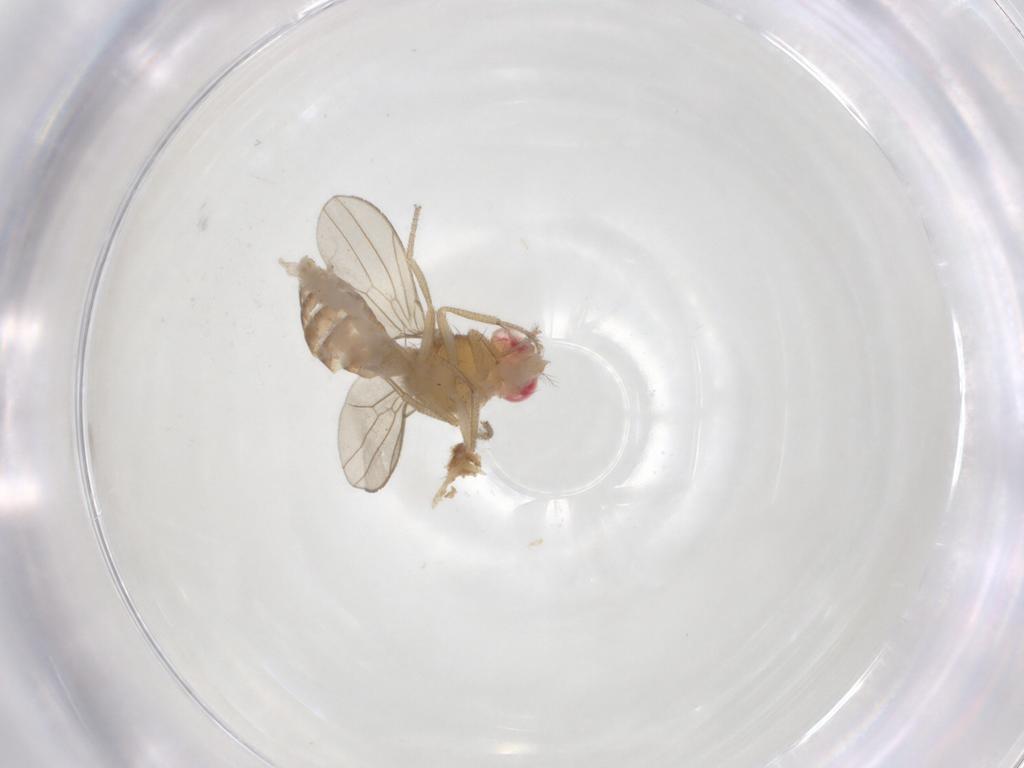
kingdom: Animalia
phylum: Arthropoda
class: Insecta
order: Diptera
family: Drosophilidae
